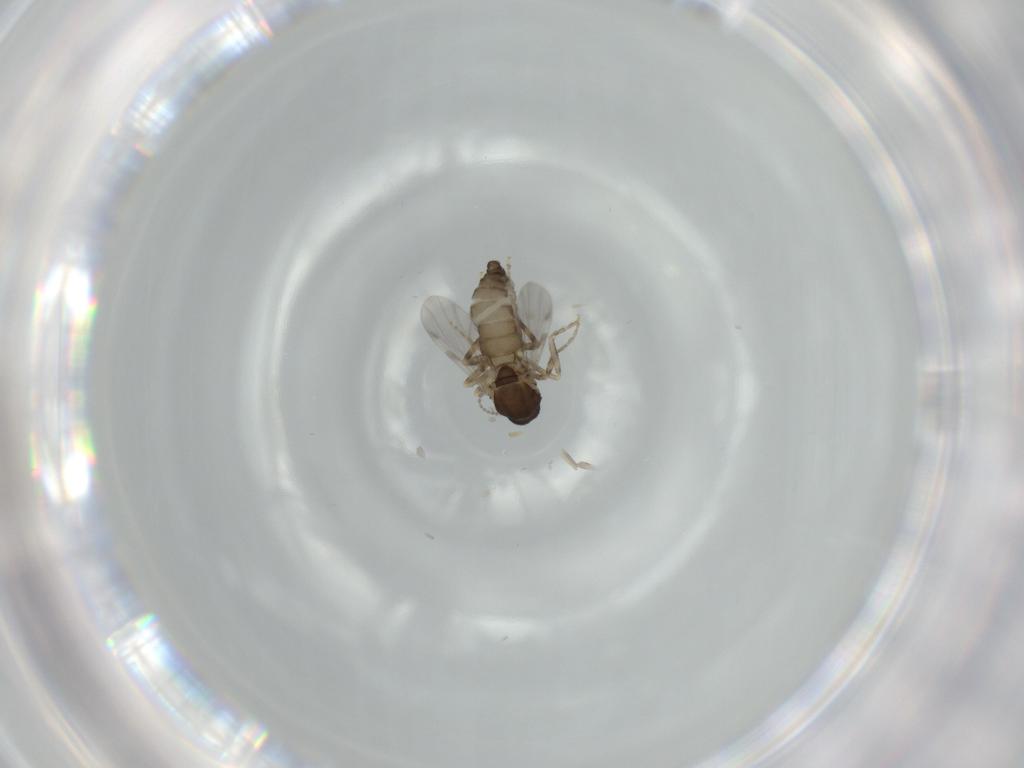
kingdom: Animalia
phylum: Arthropoda
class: Insecta
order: Diptera
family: Ceratopogonidae
